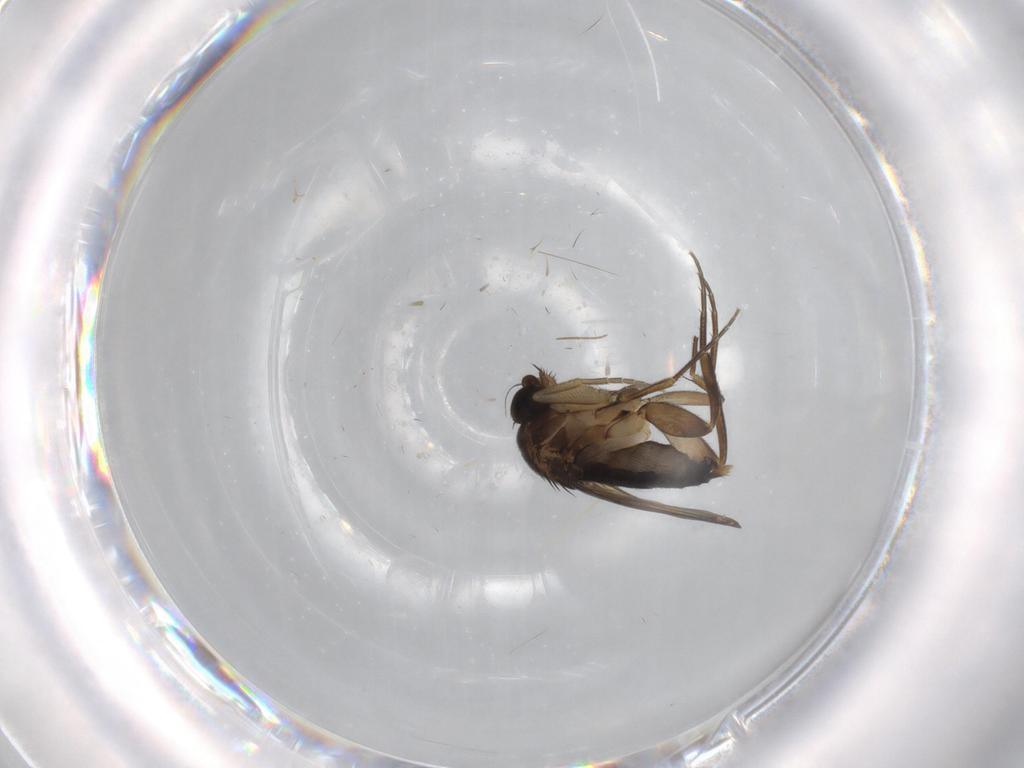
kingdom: Animalia
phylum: Arthropoda
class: Insecta
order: Diptera
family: Phoridae
